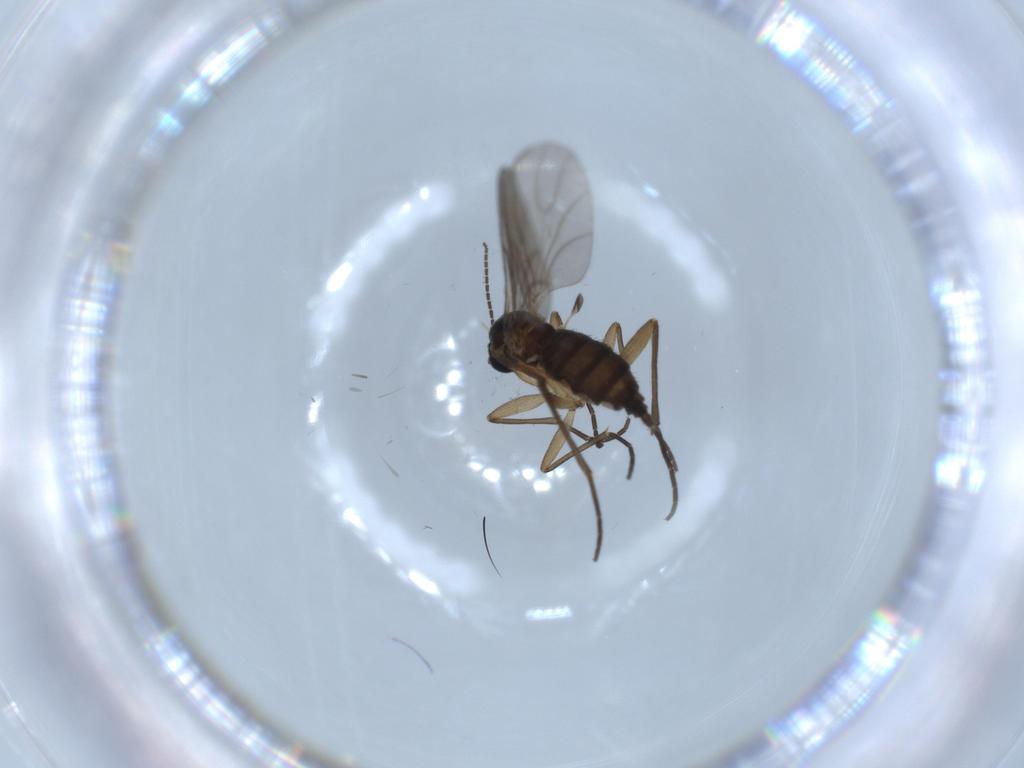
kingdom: Animalia
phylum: Arthropoda
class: Insecta
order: Diptera
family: Sciaridae
